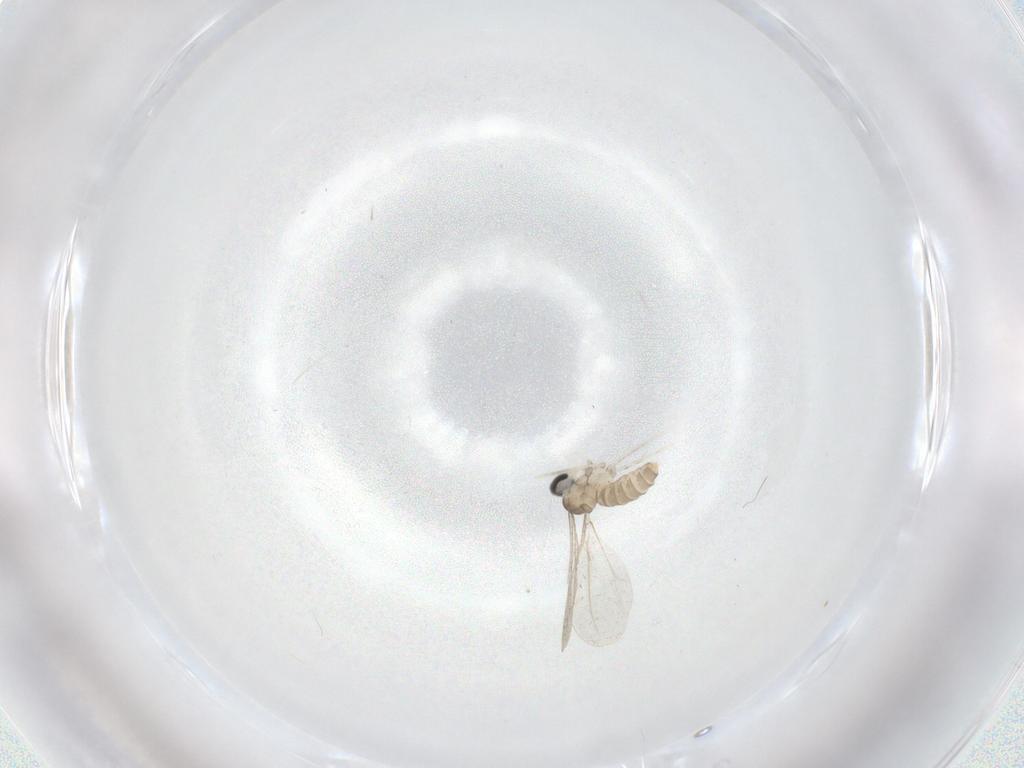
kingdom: Animalia
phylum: Arthropoda
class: Insecta
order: Diptera
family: Cecidomyiidae
